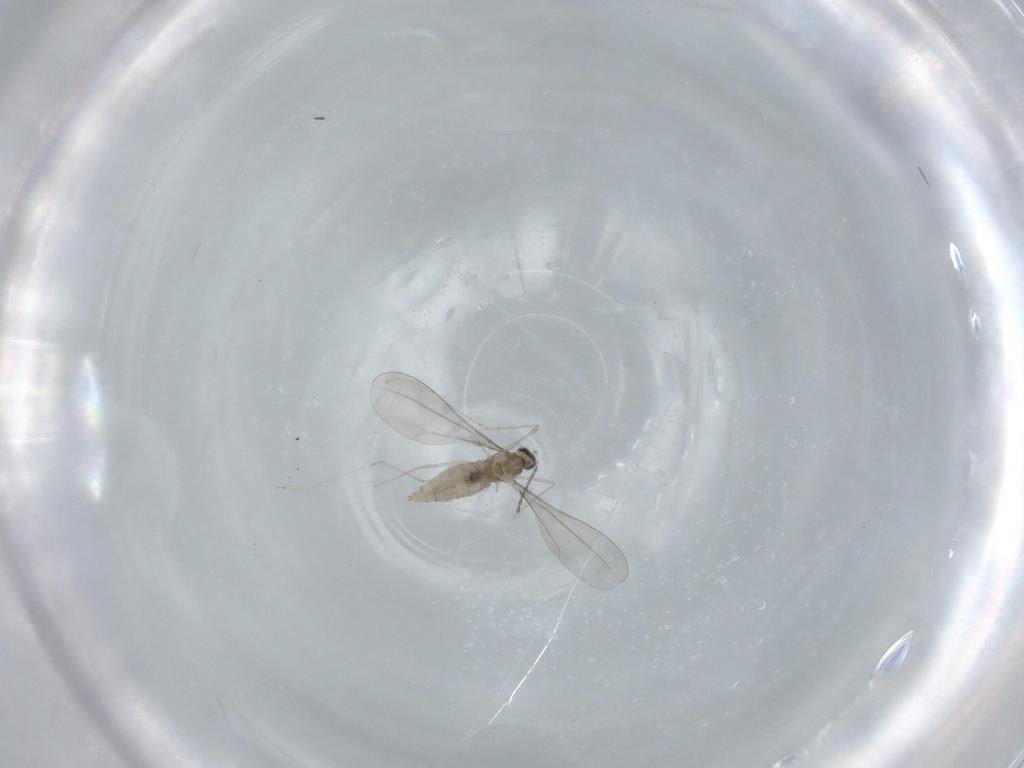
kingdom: Animalia
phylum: Arthropoda
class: Insecta
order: Diptera
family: Cecidomyiidae
